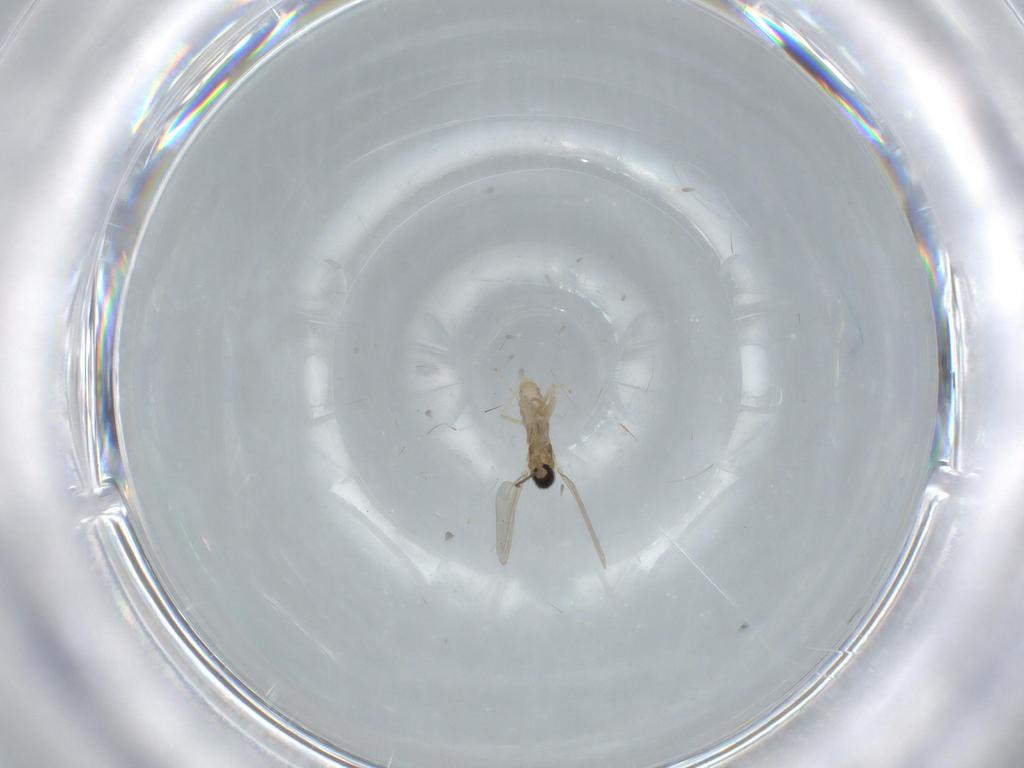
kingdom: Animalia
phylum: Arthropoda
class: Insecta
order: Diptera
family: Cecidomyiidae
